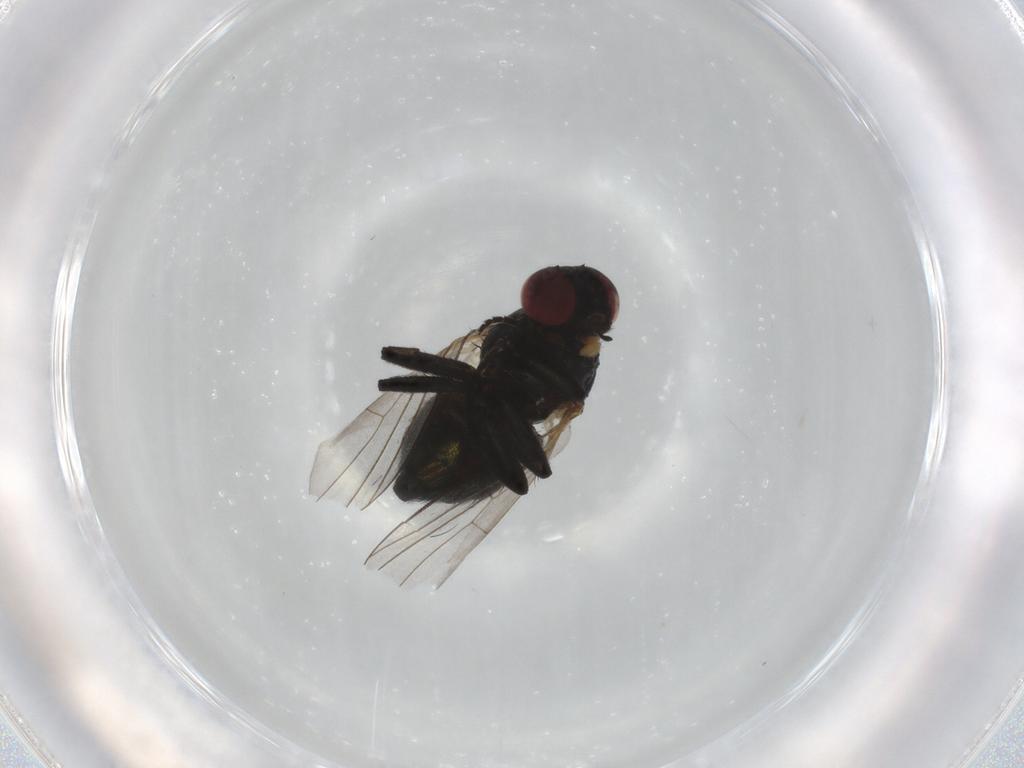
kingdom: Animalia
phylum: Arthropoda
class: Insecta
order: Diptera
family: Agromyzidae
